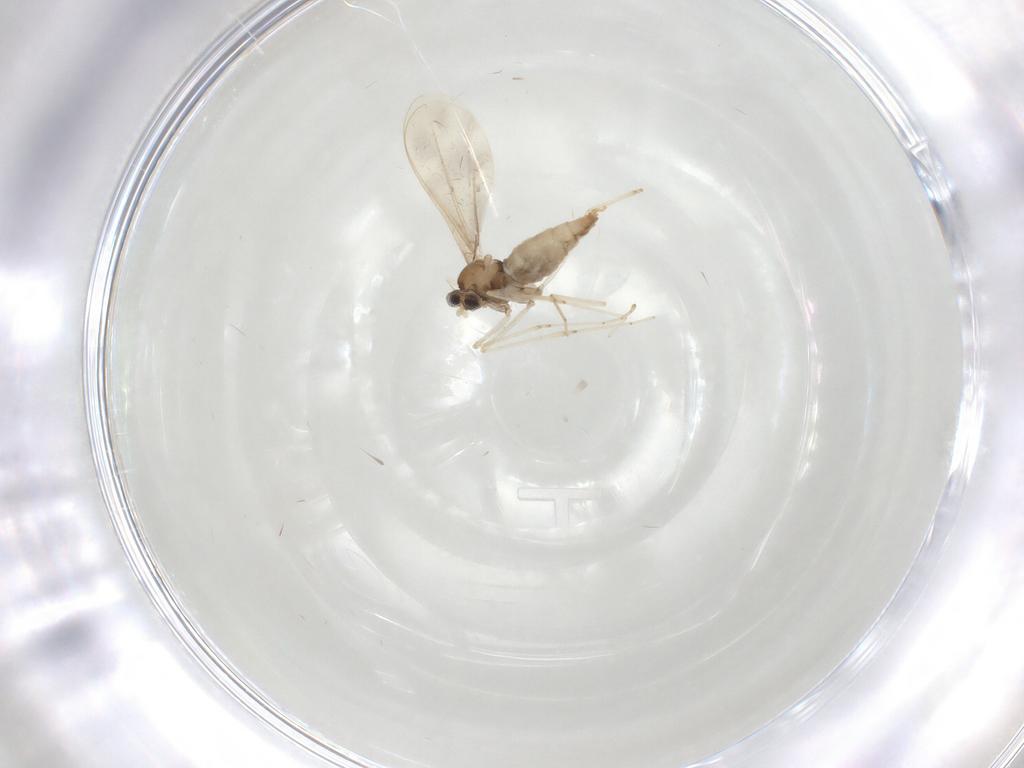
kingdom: Animalia
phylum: Arthropoda
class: Insecta
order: Diptera
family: Cecidomyiidae
